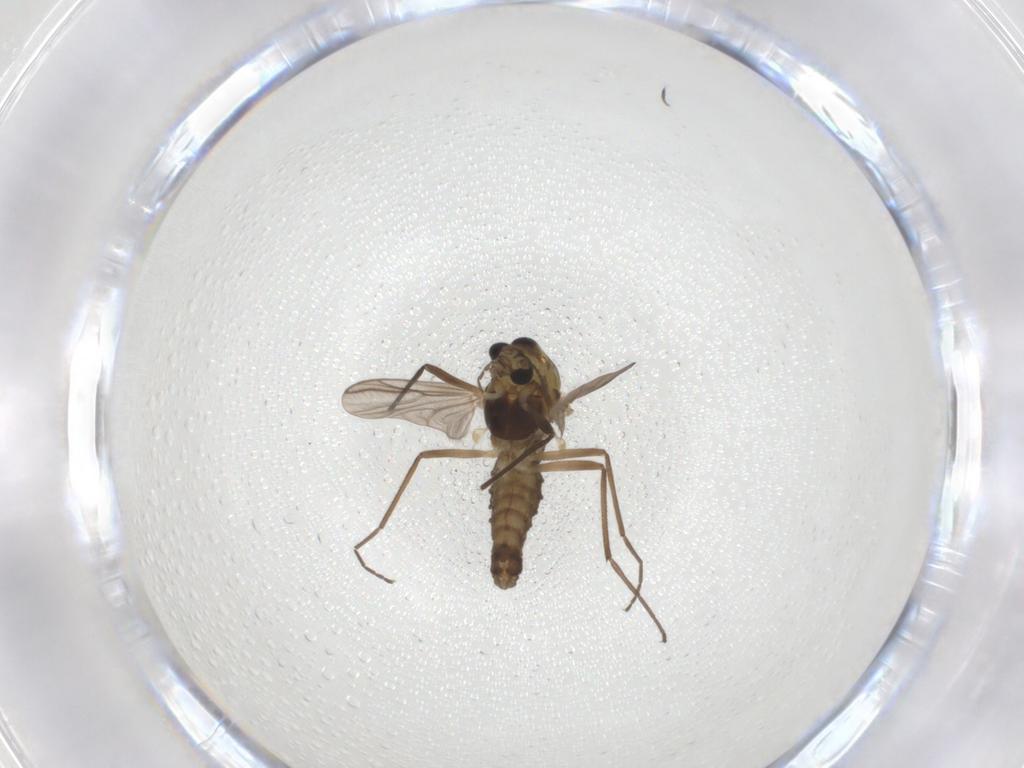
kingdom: Animalia
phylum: Arthropoda
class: Insecta
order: Diptera
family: Chironomidae
